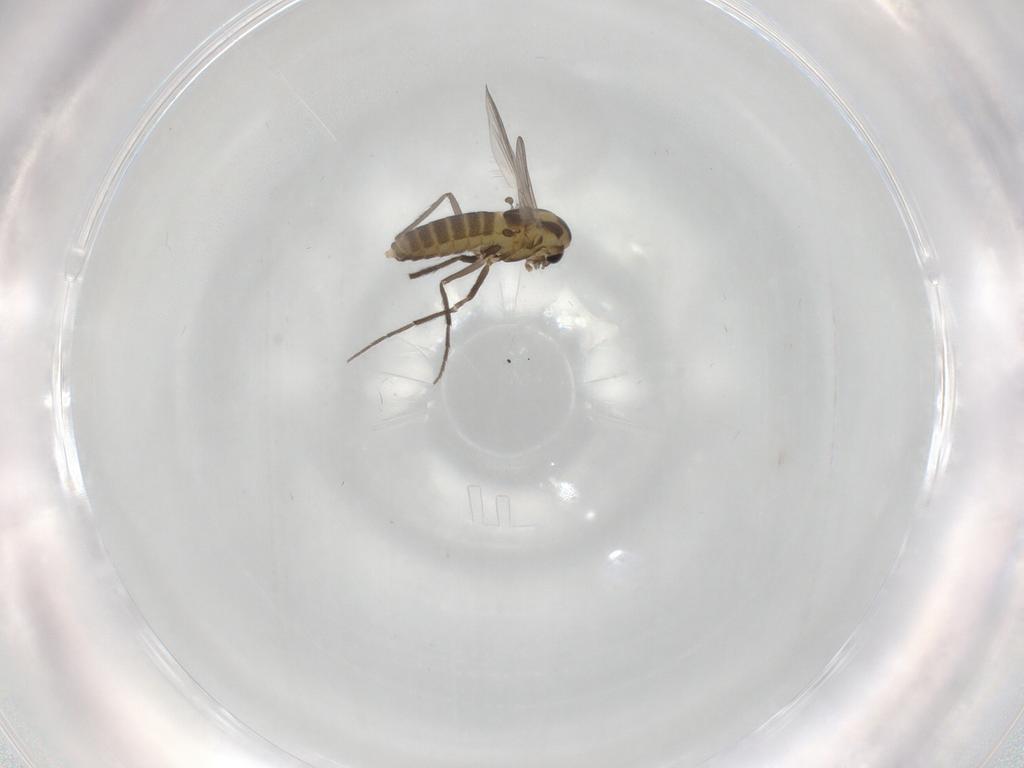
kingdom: Animalia
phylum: Arthropoda
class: Insecta
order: Diptera
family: Chironomidae
